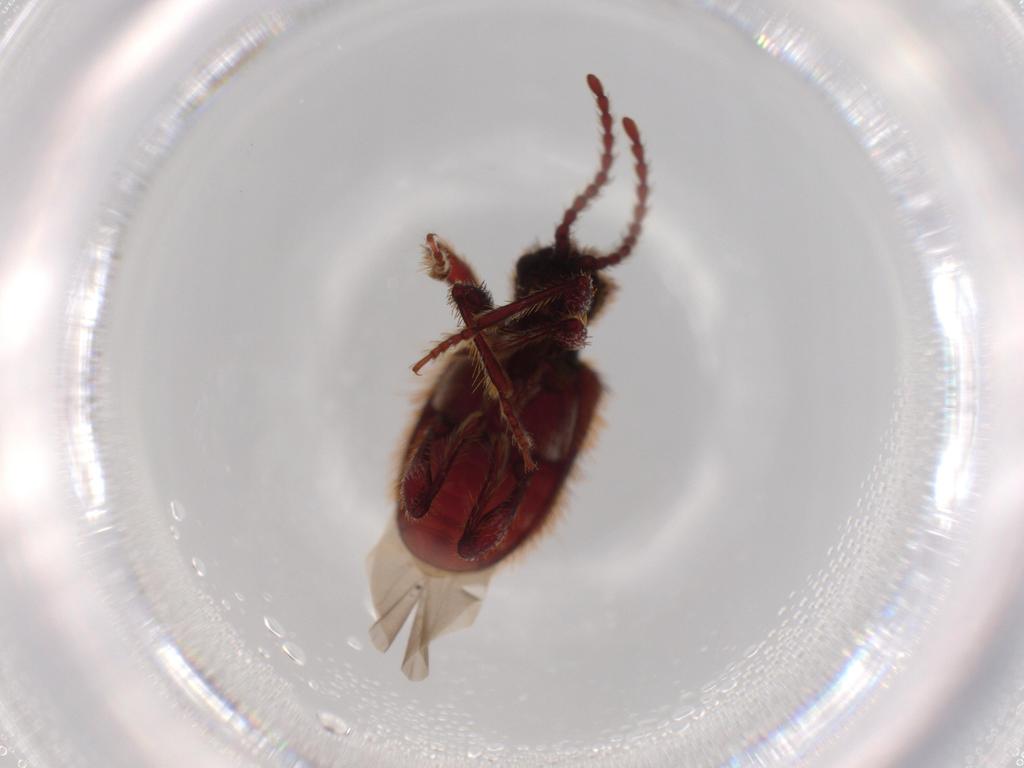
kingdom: Animalia
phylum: Arthropoda
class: Insecta
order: Coleoptera
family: Ptinidae
